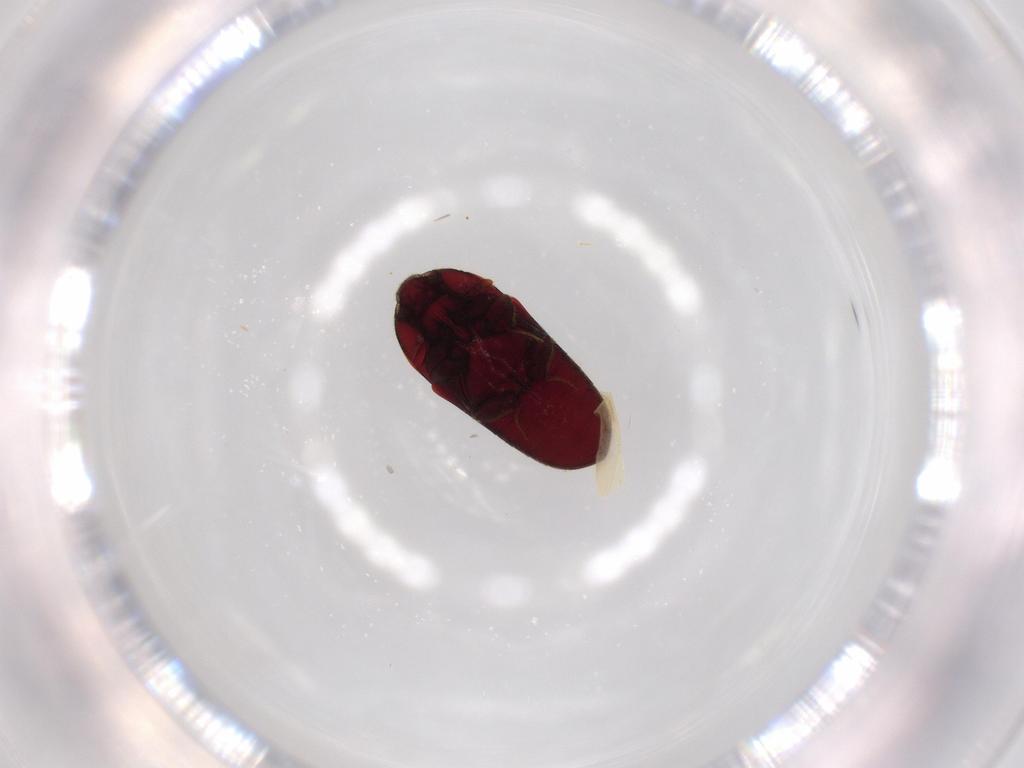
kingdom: Animalia
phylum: Arthropoda
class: Insecta
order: Coleoptera
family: Throscidae
